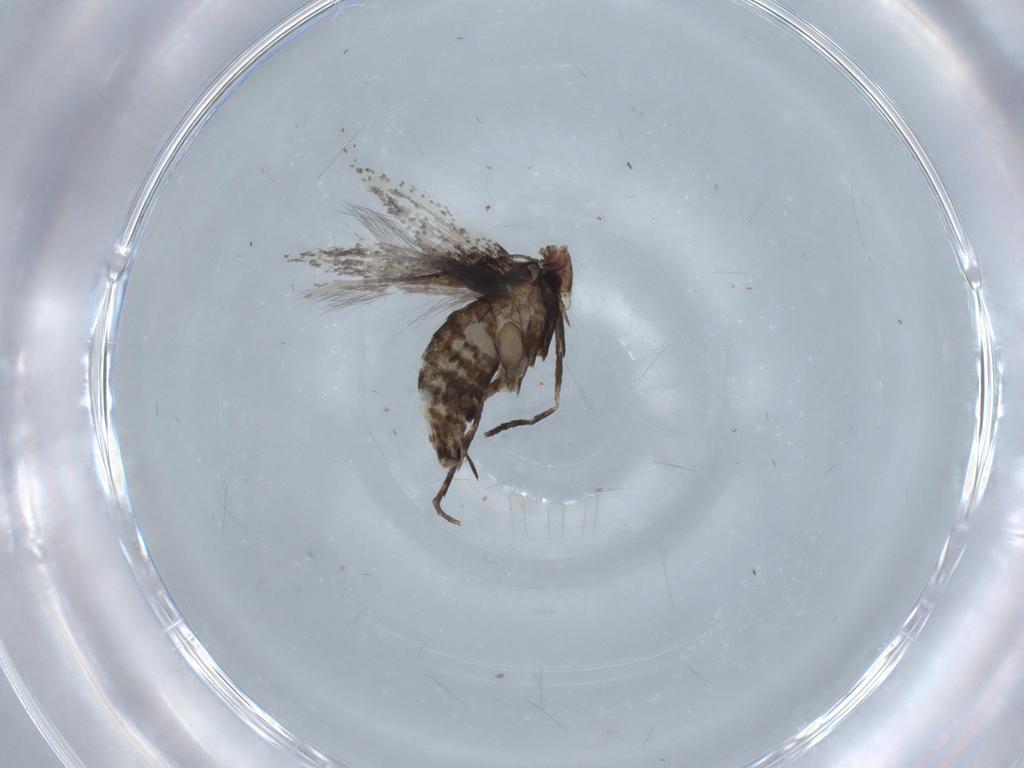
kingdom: Animalia
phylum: Arthropoda
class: Insecta
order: Lepidoptera
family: Gracillariidae
